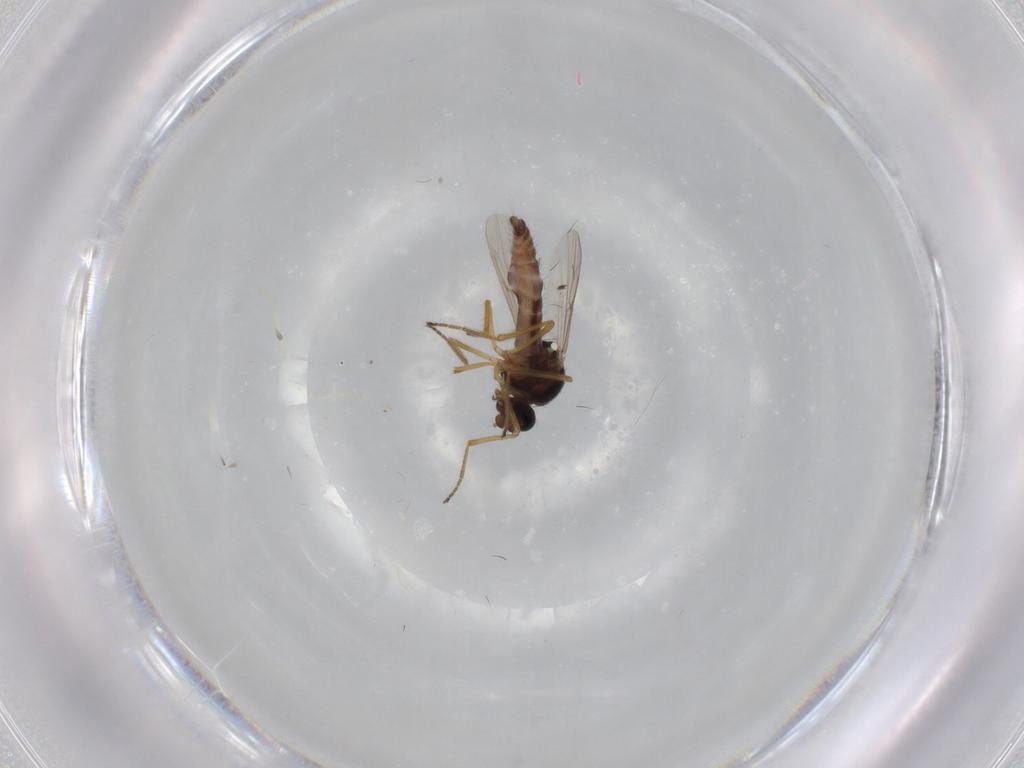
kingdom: Animalia
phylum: Arthropoda
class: Insecta
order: Diptera
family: Ceratopogonidae
